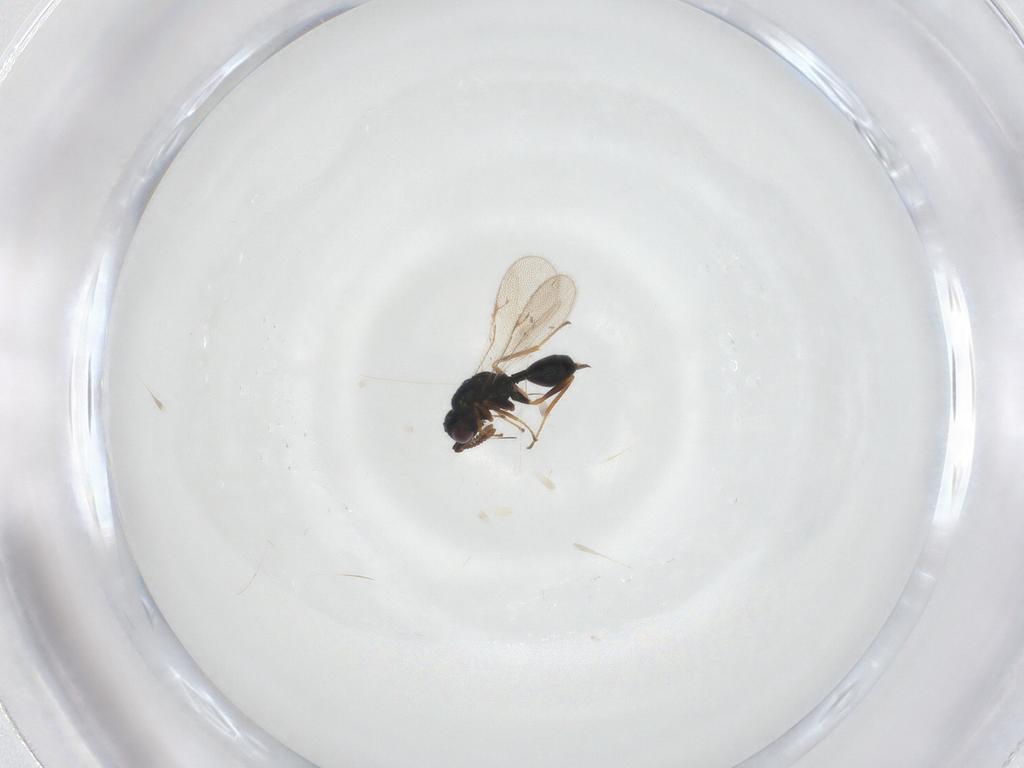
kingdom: Animalia
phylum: Arthropoda
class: Insecta
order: Hymenoptera
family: Chalcidoidea_incertae_sedis
